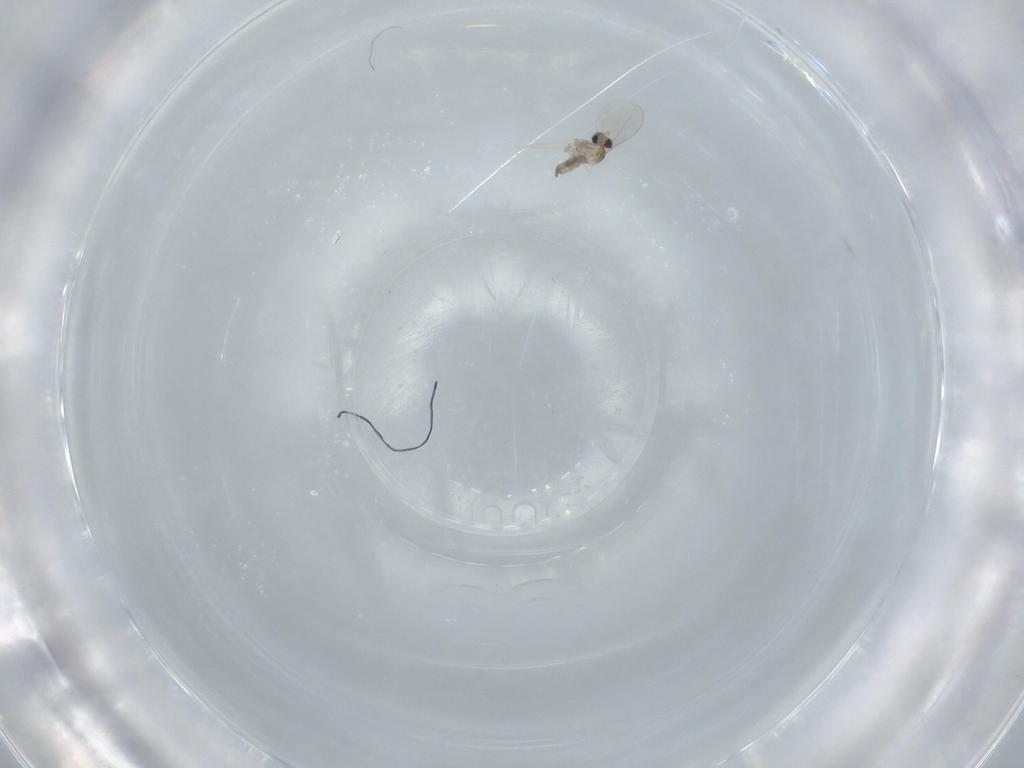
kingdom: Animalia
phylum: Arthropoda
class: Insecta
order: Diptera
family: Cecidomyiidae
